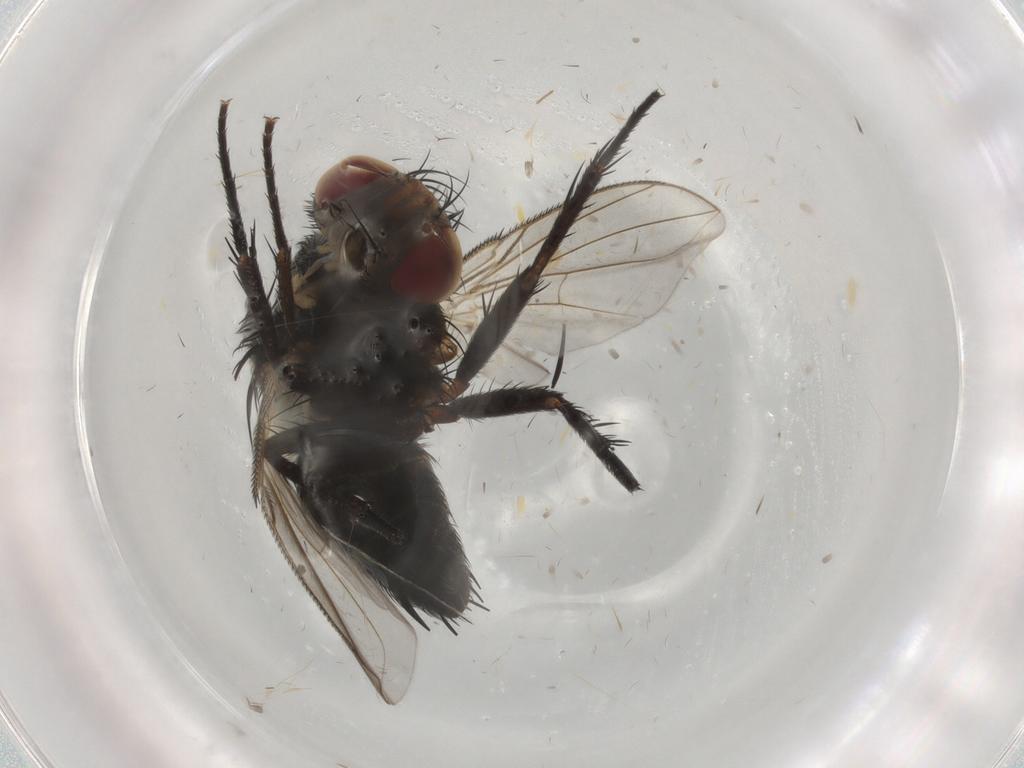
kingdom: Animalia
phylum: Arthropoda
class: Insecta
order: Diptera
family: Tachinidae
